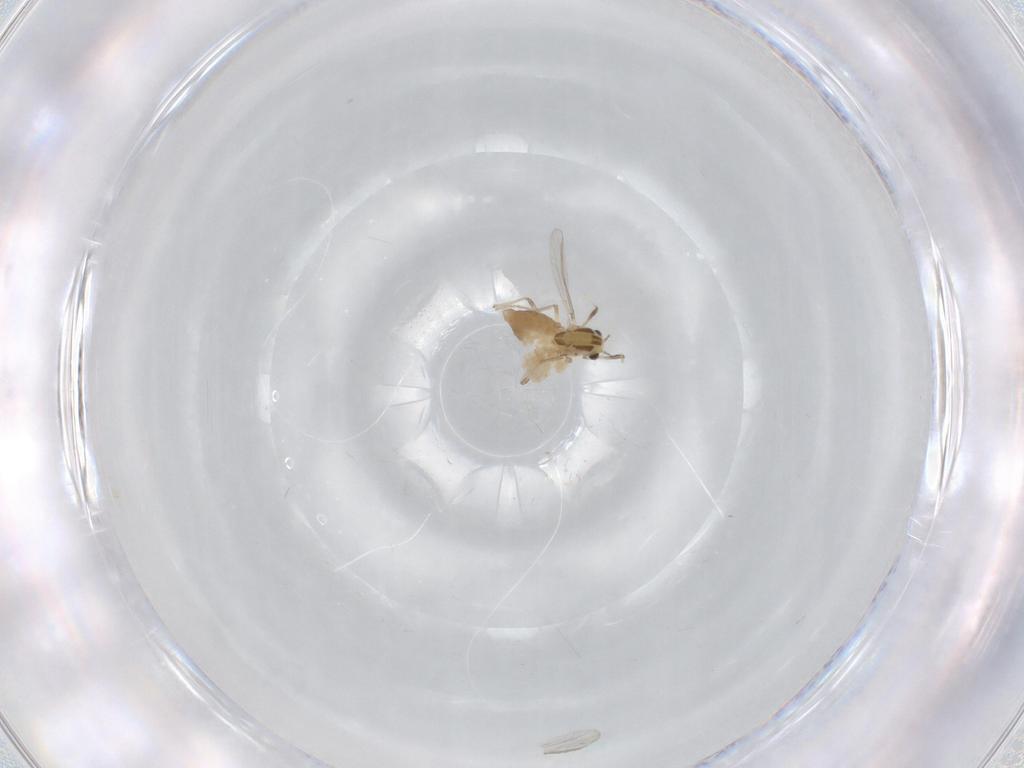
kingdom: Animalia
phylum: Arthropoda
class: Insecta
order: Diptera
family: Chironomidae
